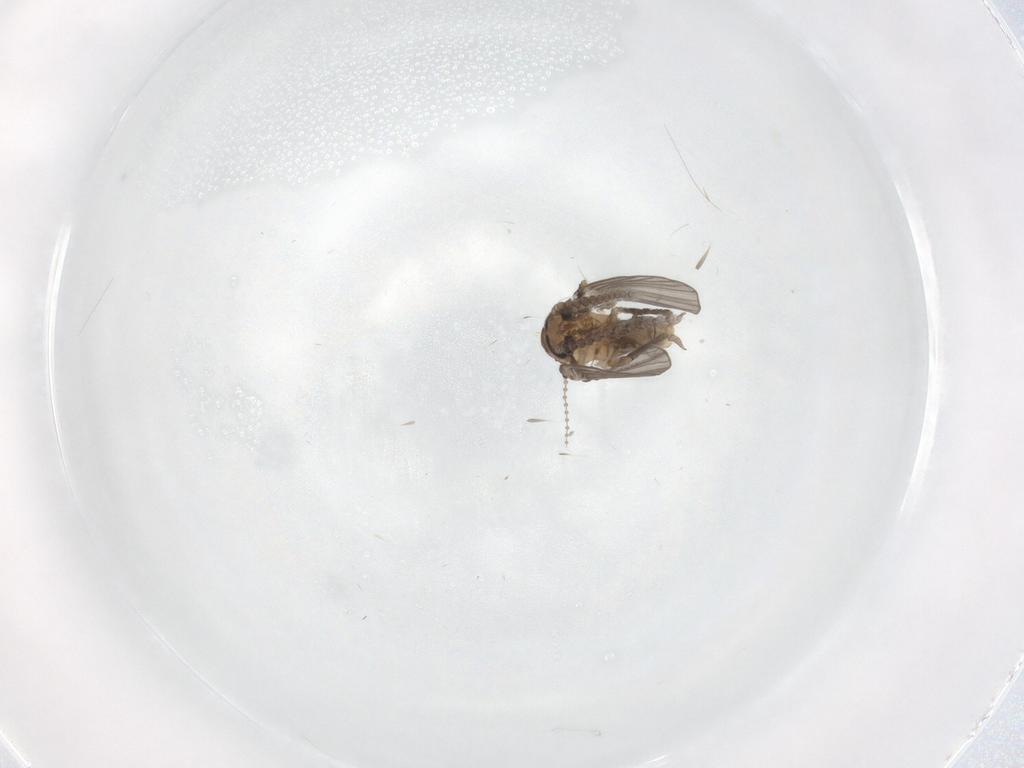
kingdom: Animalia
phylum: Arthropoda
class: Insecta
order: Diptera
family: Psychodidae
